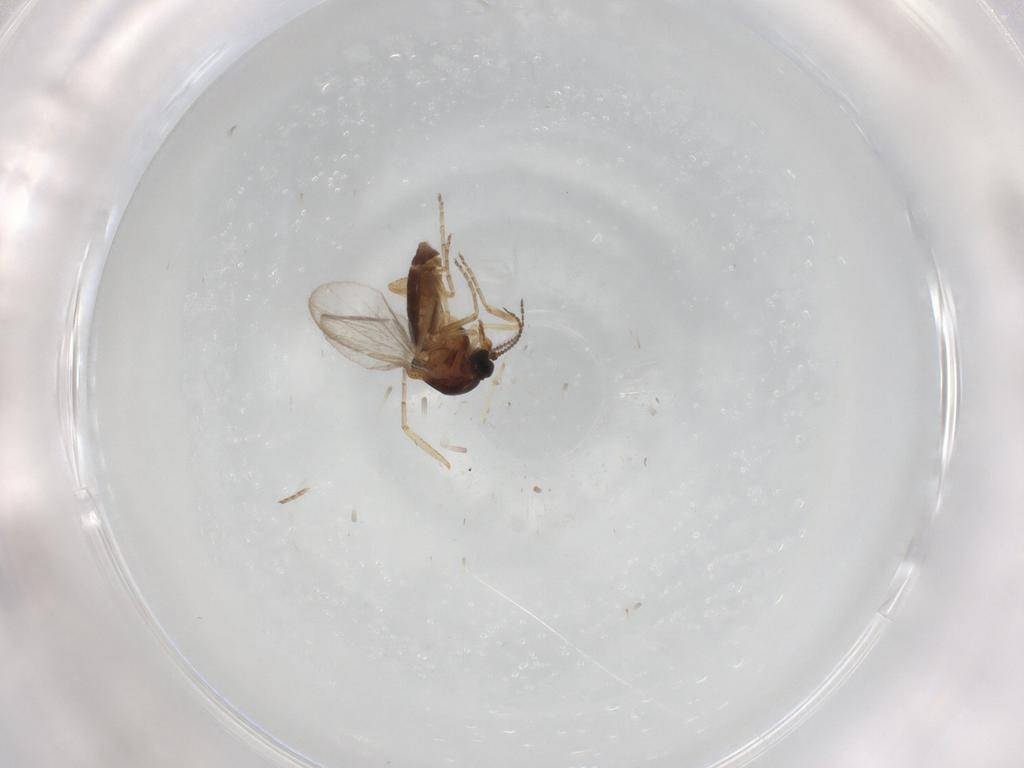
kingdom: Animalia
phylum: Arthropoda
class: Insecta
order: Diptera
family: Ceratopogonidae
